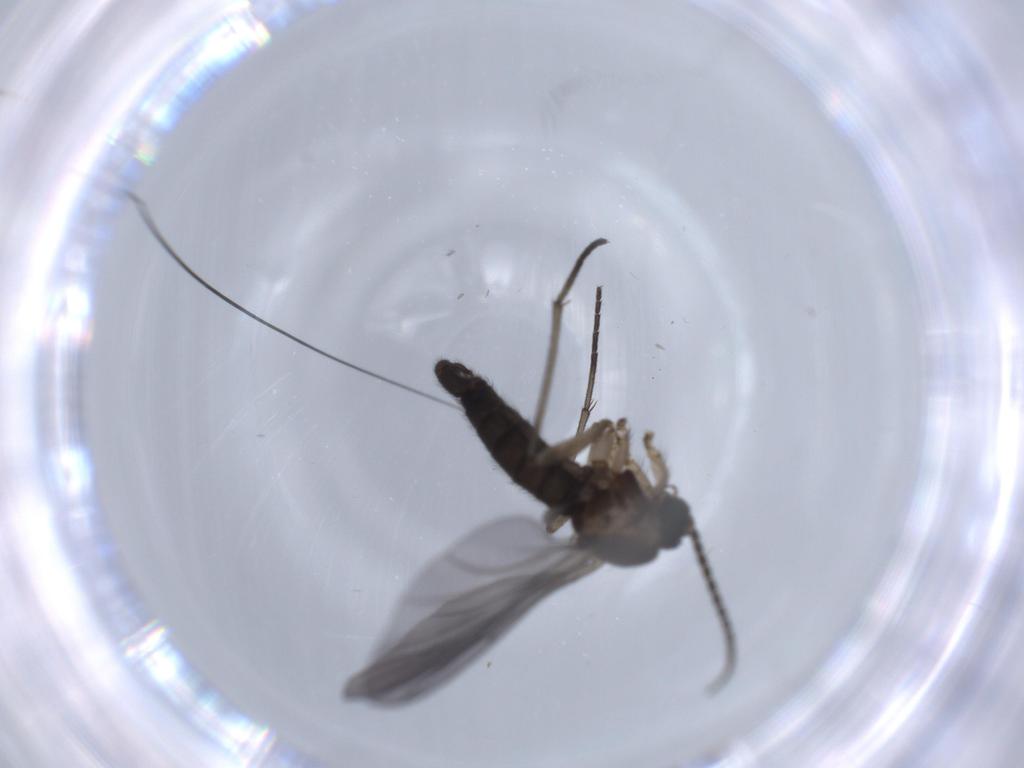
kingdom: Animalia
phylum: Arthropoda
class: Insecta
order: Diptera
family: Sciaridae
